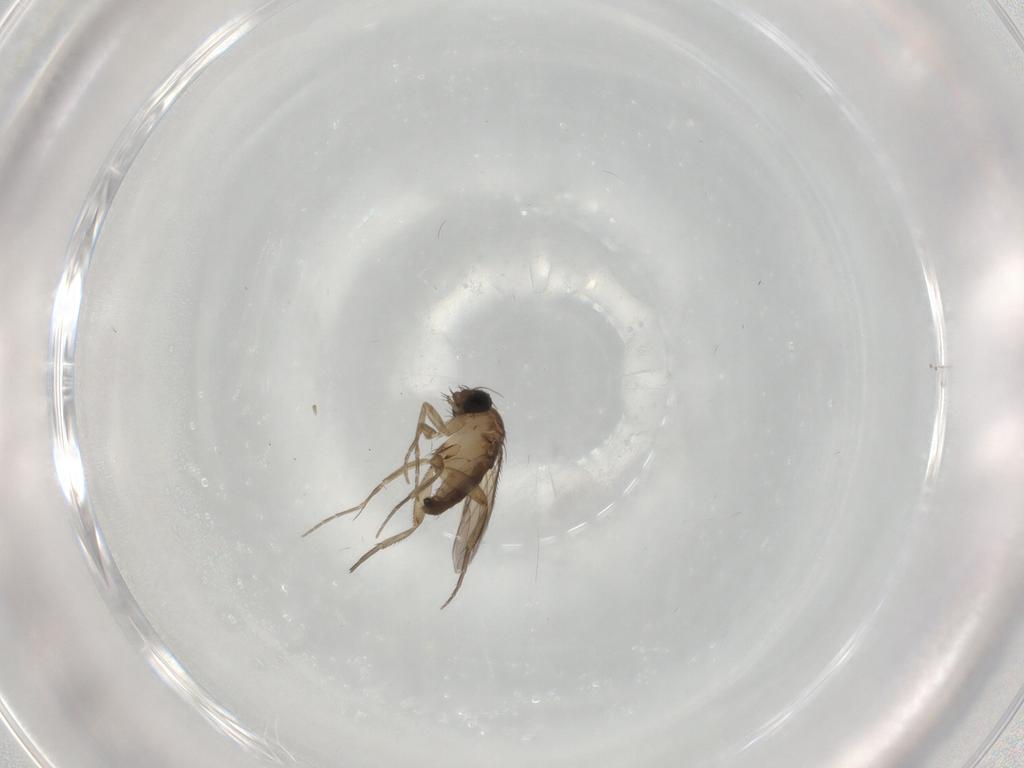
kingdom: Animalia
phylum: Arthropoda
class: Insecta
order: Diptera
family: Phoridae
